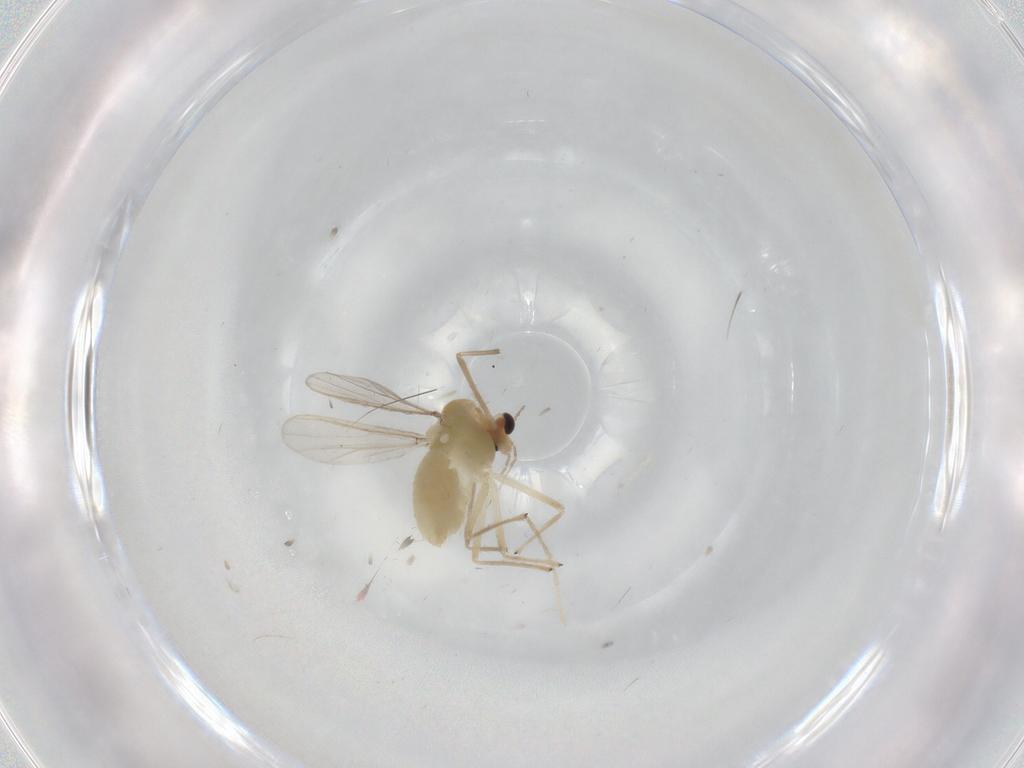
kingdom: Animalia
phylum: Arthropoda
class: Insecta
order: Diptera
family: Chironomidae
